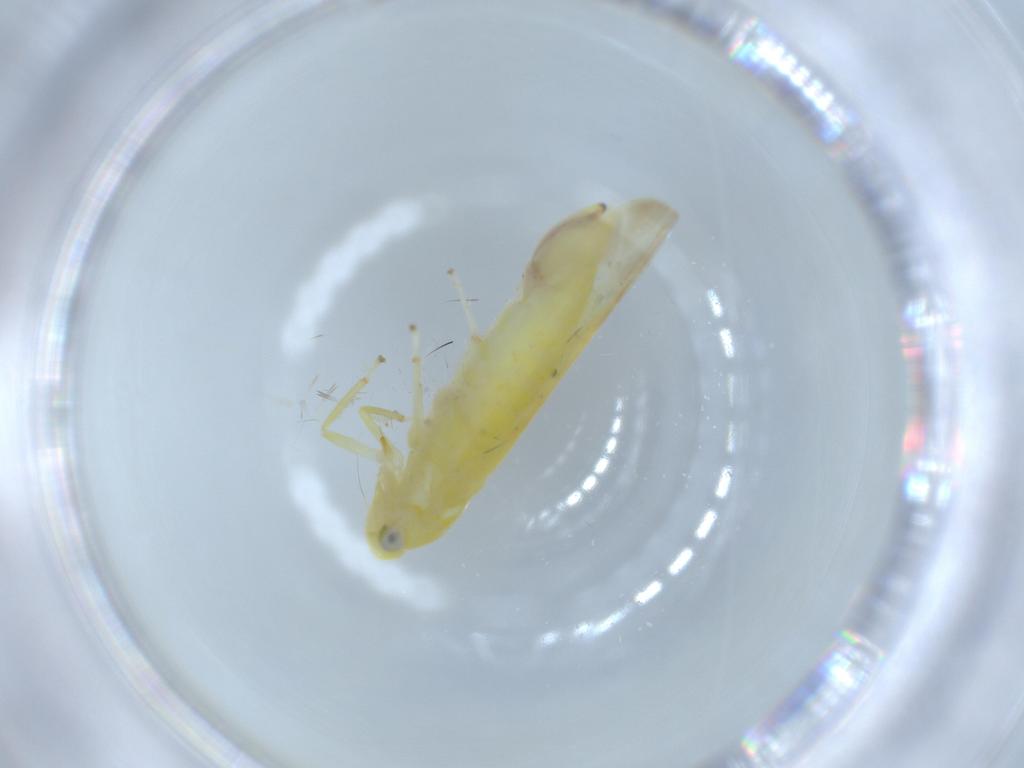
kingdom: Animalia
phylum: Arthropoda
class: Insecta
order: Hemiptera
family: Cicadellidae
